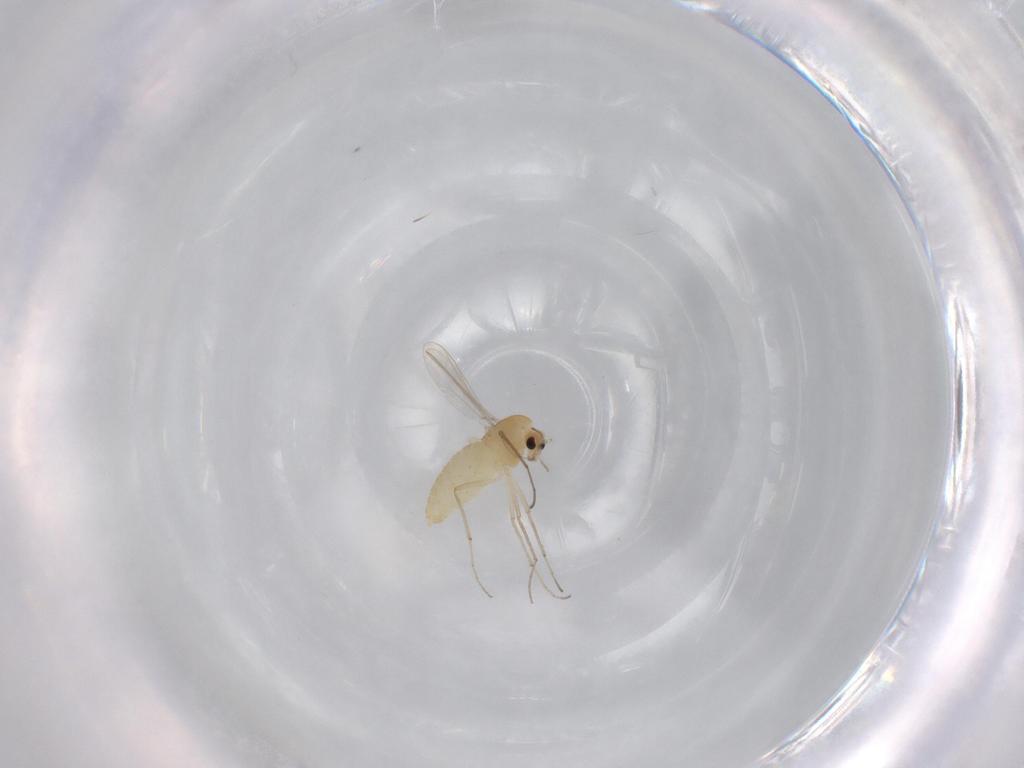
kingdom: Animalia
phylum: Arthropoda
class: Insecta
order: Diptera
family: Chironomidae
